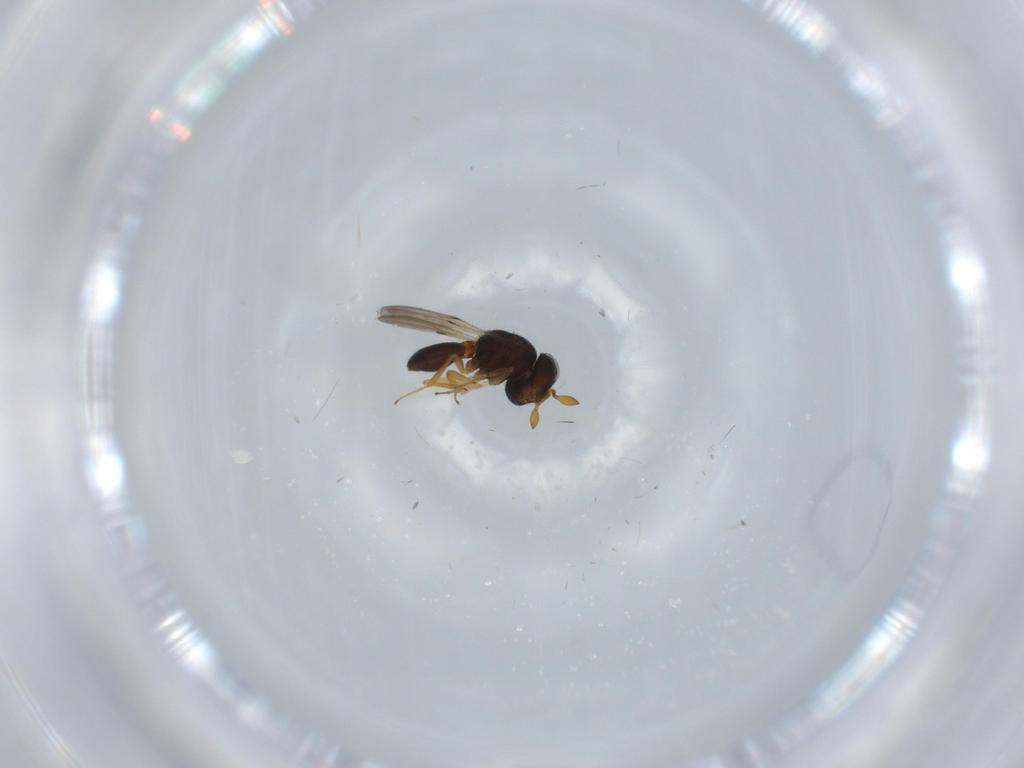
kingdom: Animalia
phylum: Arthropoda
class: Insecta
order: Hymenoptera
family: Scelionidae
